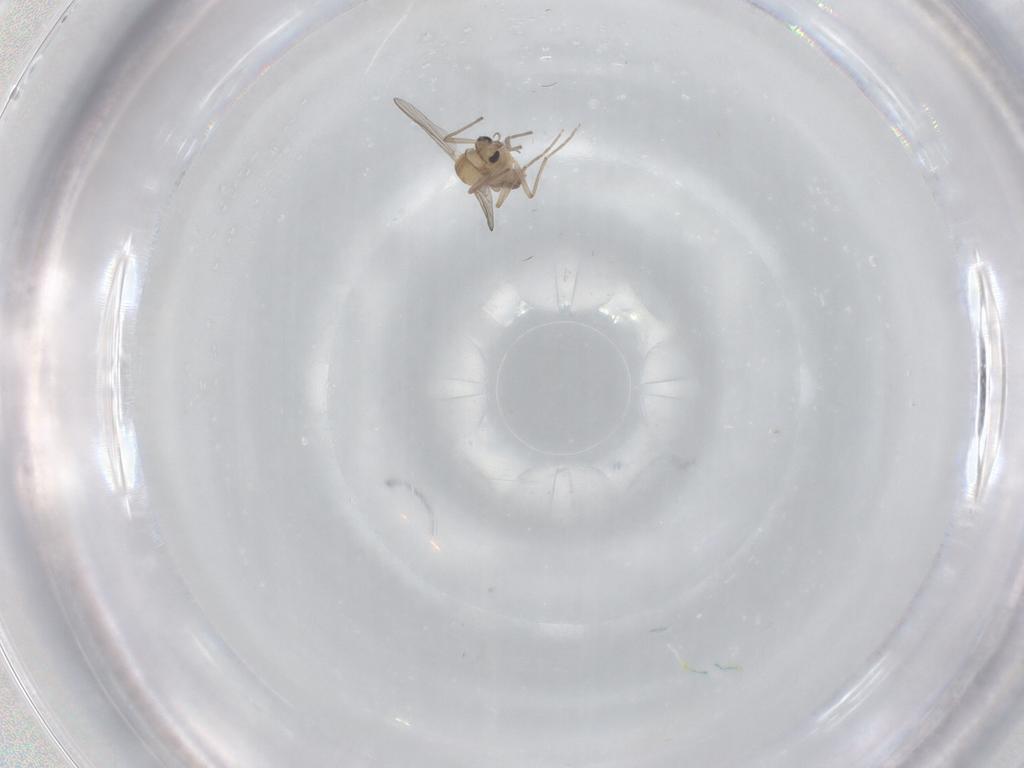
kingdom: Animalia
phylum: Arthropoda
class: Insecta
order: Diptera
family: Chironomidae
